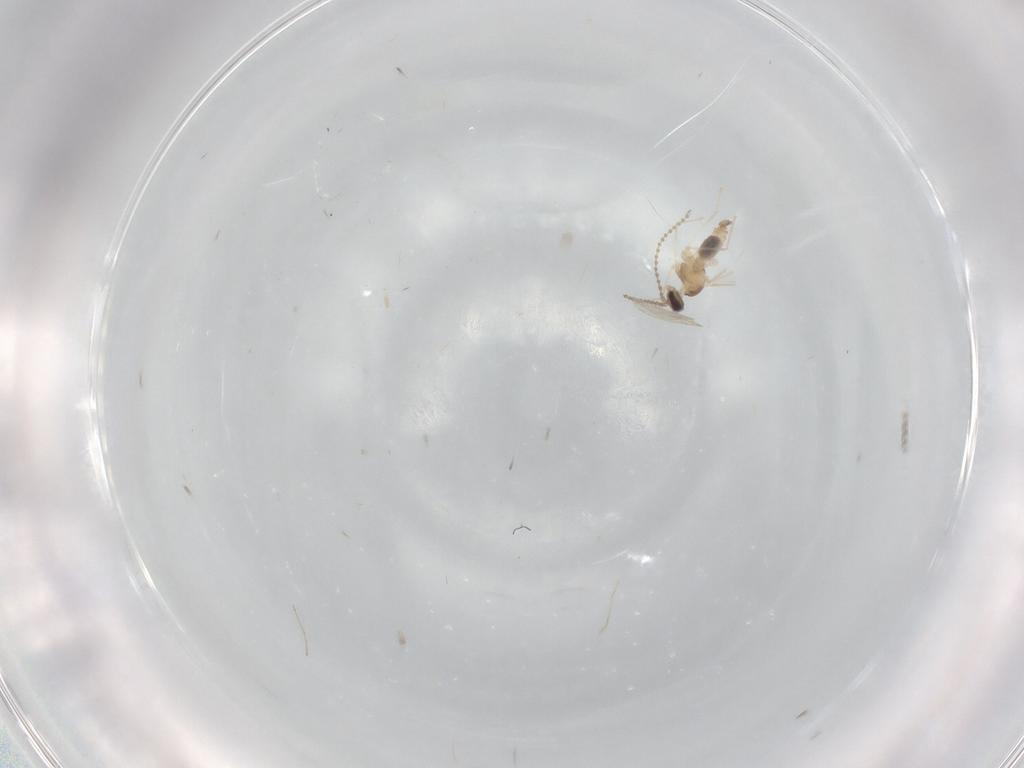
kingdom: Animalia
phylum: Arthropoda
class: Insecta
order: Diptera
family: Cecidomyiidae
